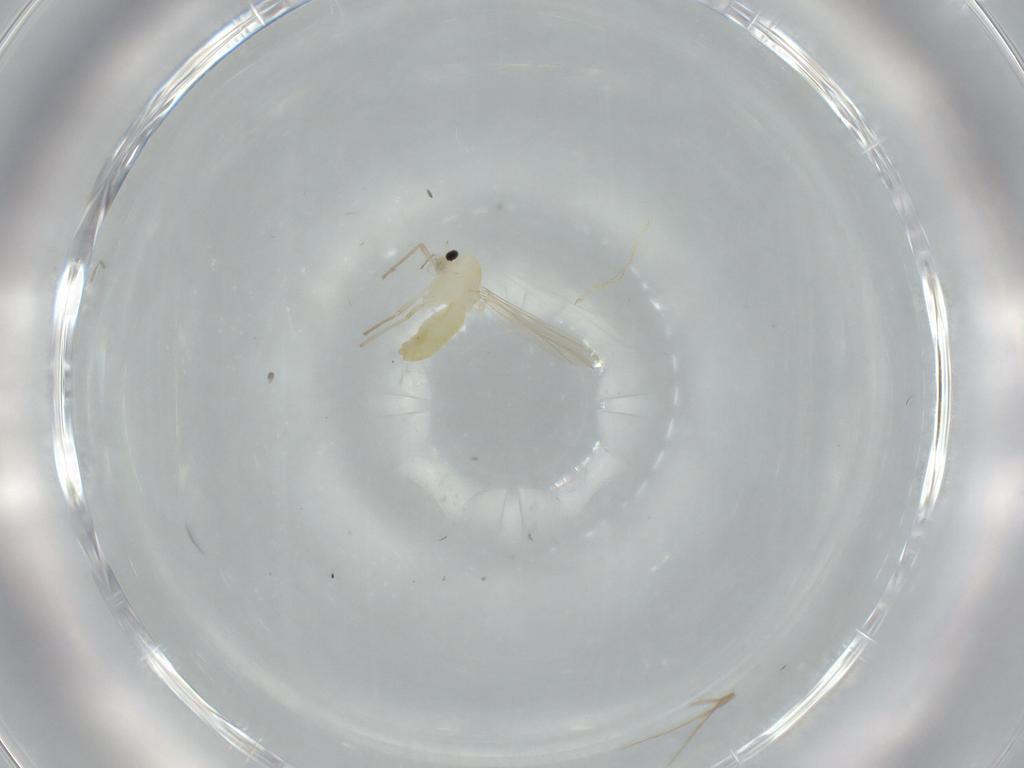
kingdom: Animalia
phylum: Arthropoda
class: Insecta
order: Diptera
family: Chironomidae
